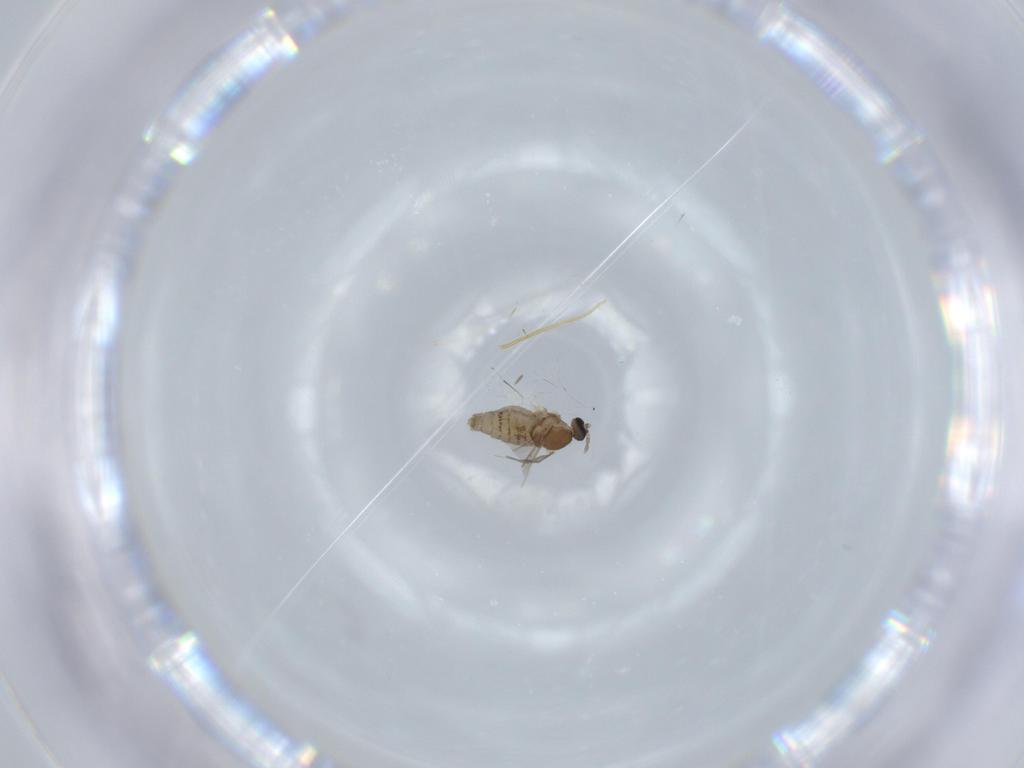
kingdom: Animalia
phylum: Arthropoda
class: Insecta
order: Diptera
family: Cecidomyiidae
